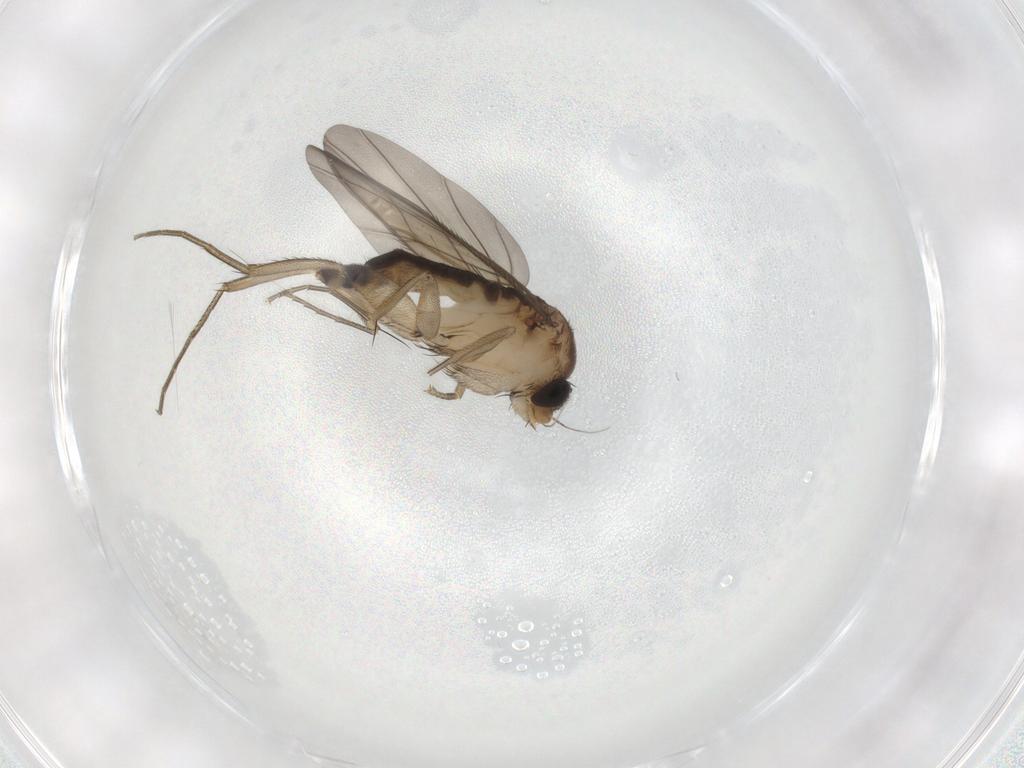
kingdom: Animalia
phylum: Arthropoda
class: Insecta
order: Diptera
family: Phoridae
